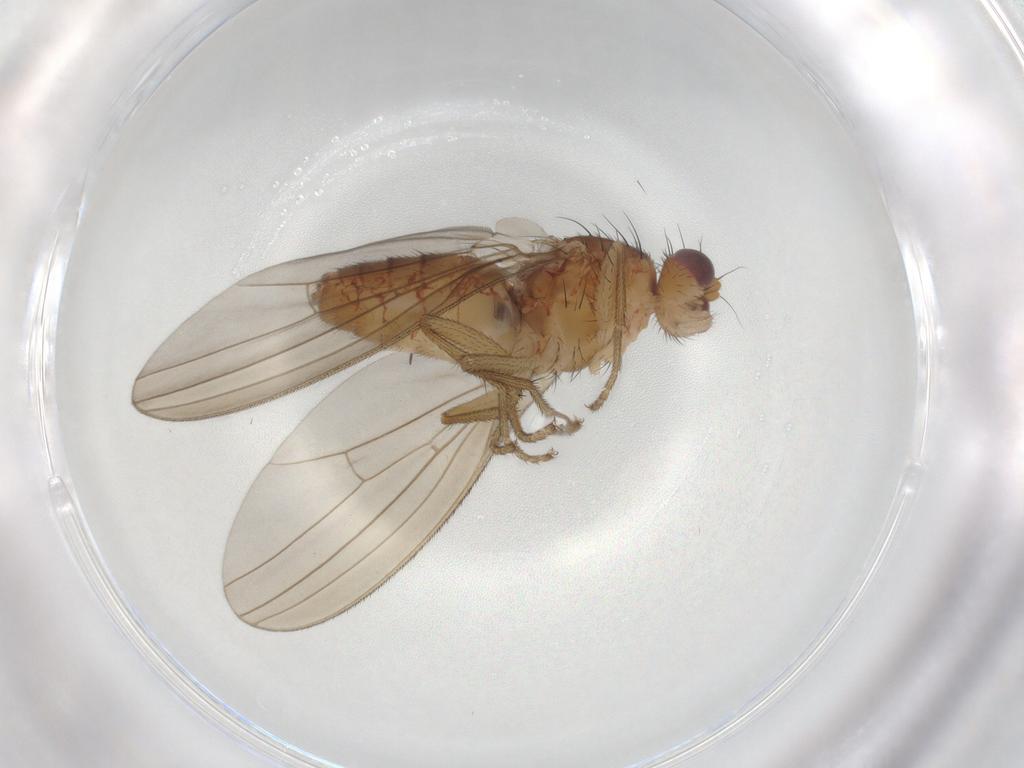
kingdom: Animalia
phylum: Arthropoda
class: Insecta
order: Diptera
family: Natalimyzidae
